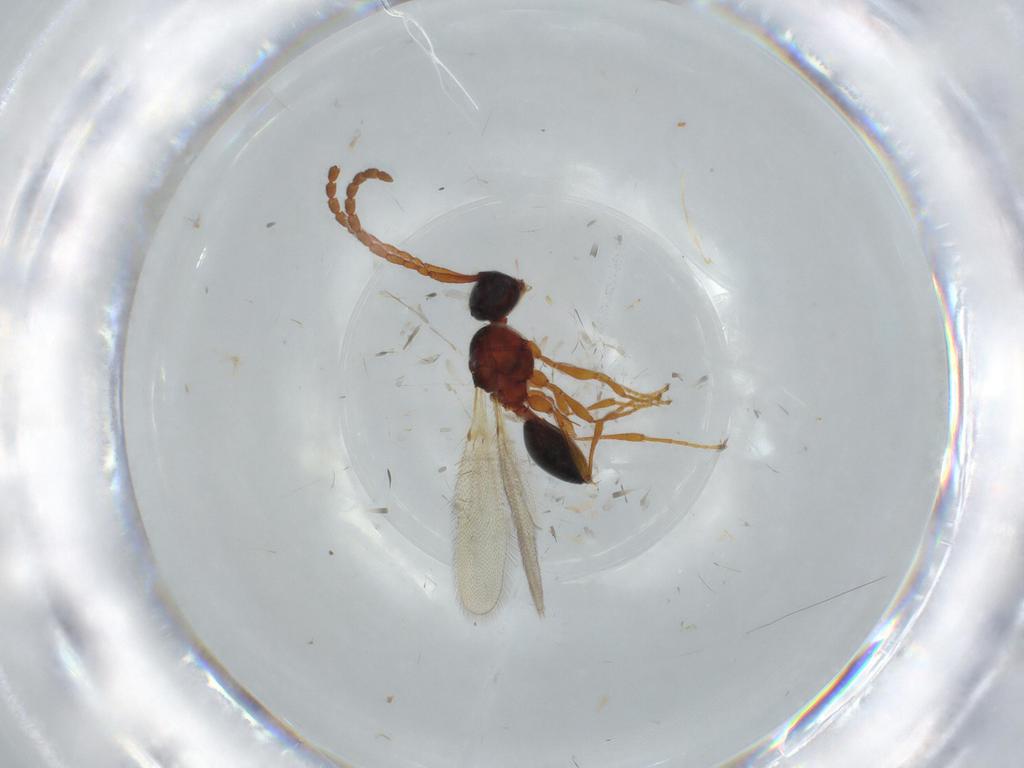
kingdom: Animalia
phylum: Arthropoda
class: Insecta
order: Hymenoptera
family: Diapriidae
